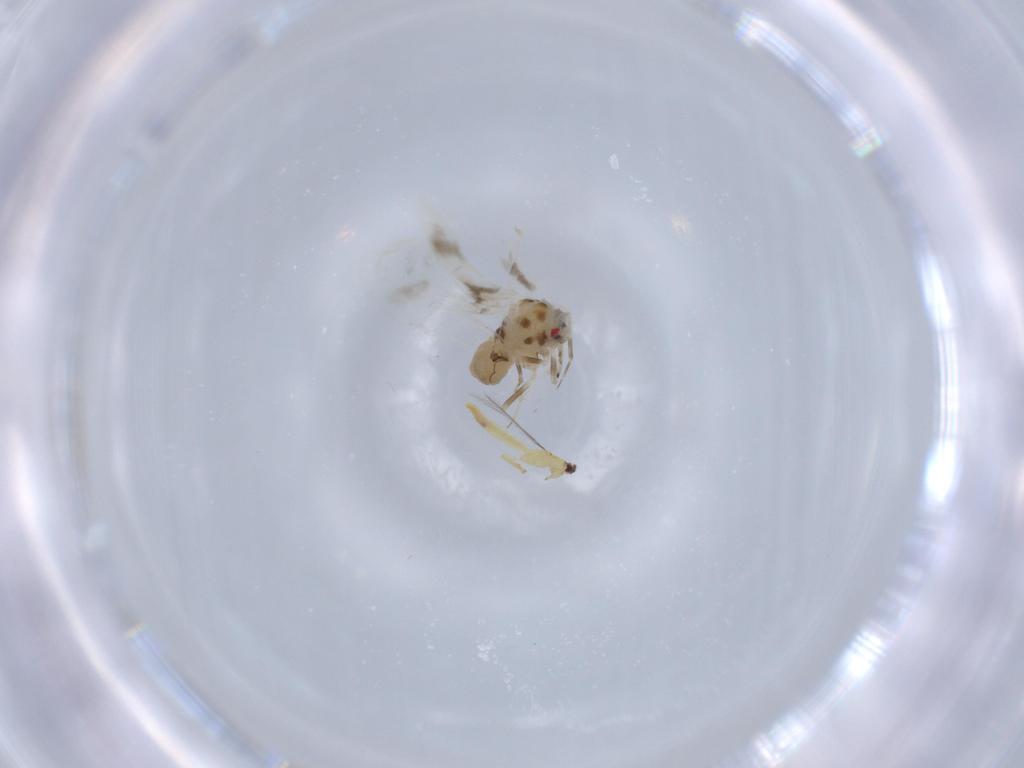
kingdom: Animalia
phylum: Arthropoda
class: Insecta
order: Hemiptera
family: Aleyrodidae
